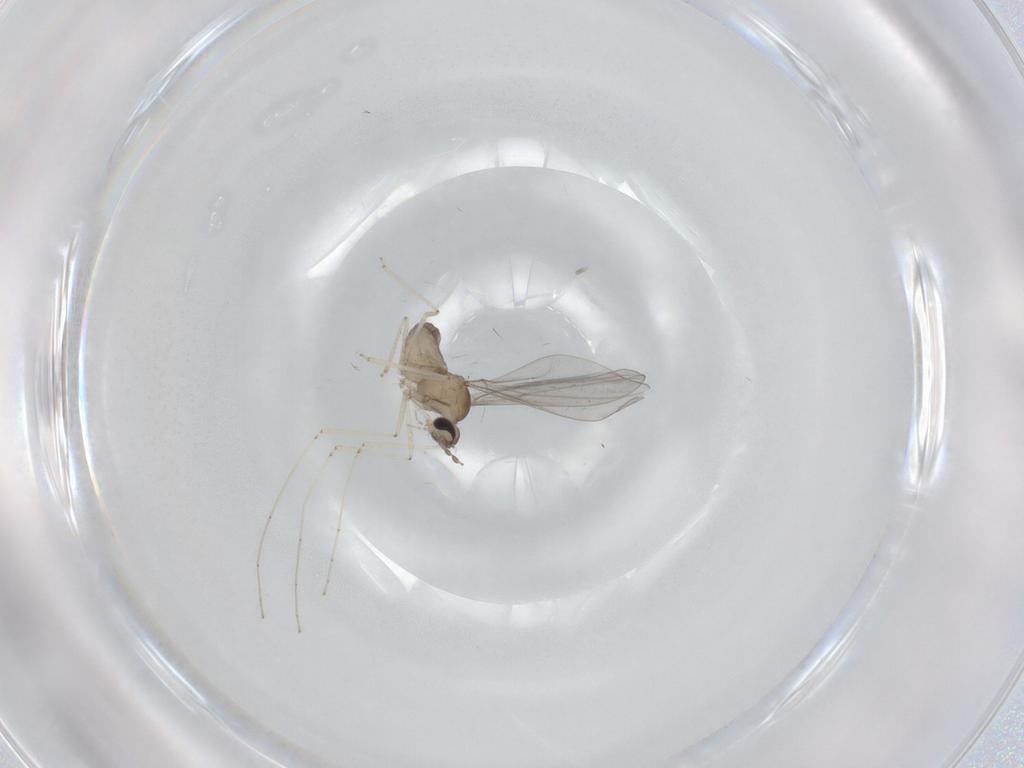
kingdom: Animalia
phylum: Arthropoda
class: Insecta
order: Diptera
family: Cecidomyiidae
